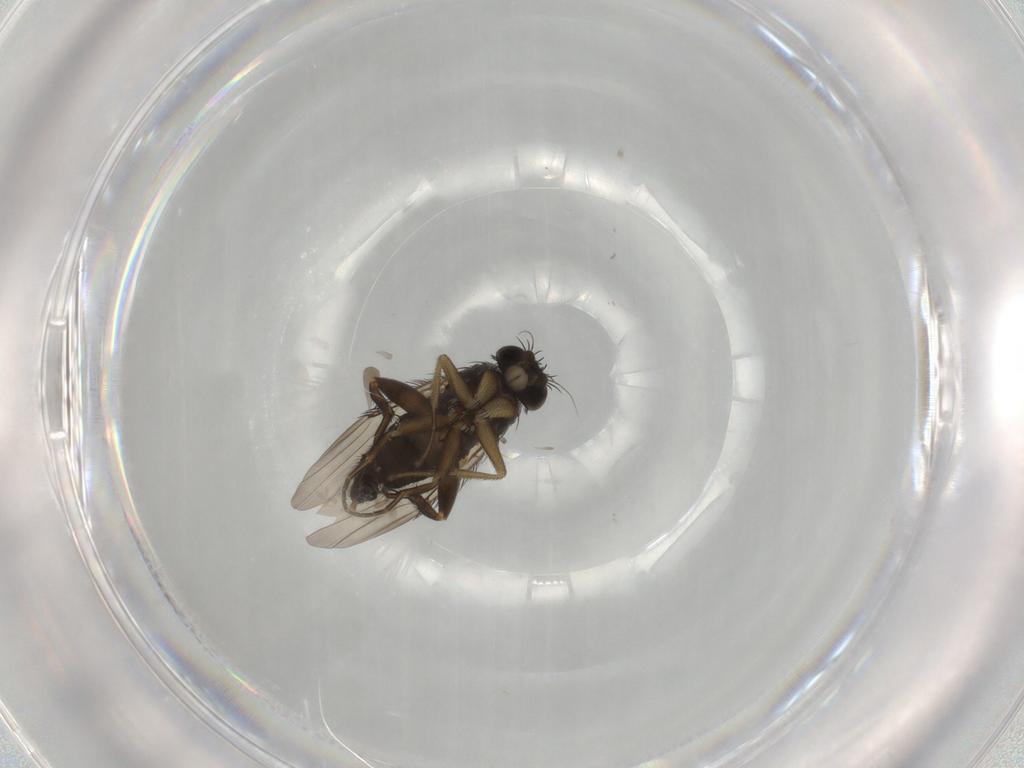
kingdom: Animalia
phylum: Arthropoda
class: Insecta
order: Diptera
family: Phoridae
